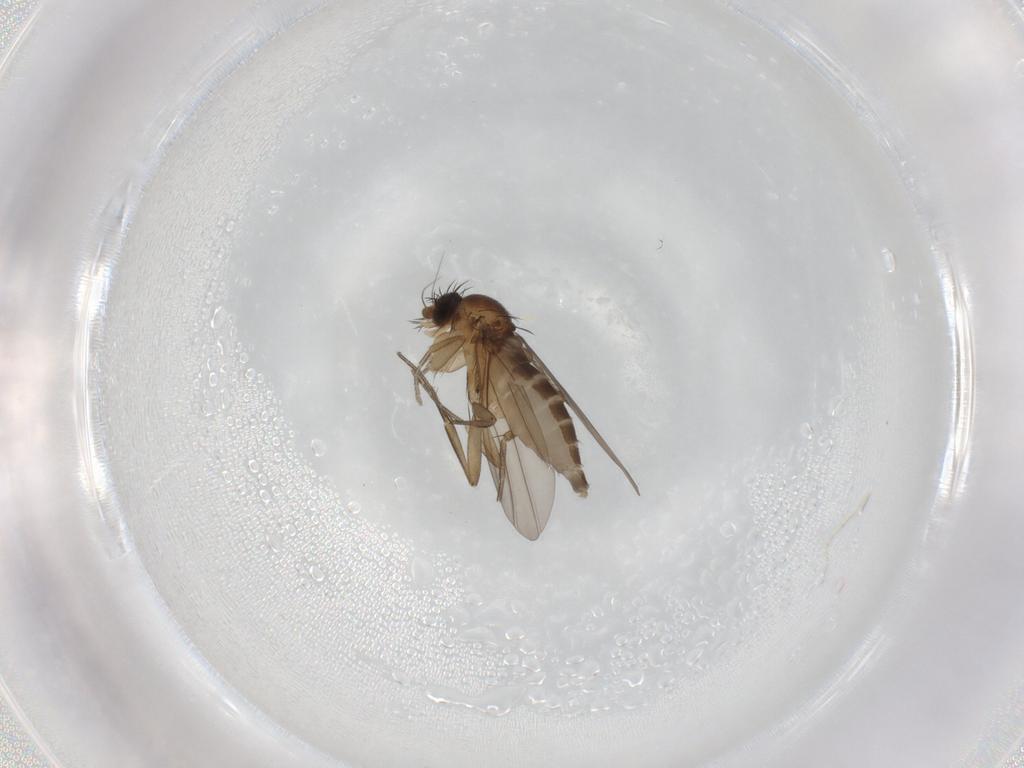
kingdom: Animalia
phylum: Arthropoda
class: Insecta
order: Diptera
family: Phoridae
